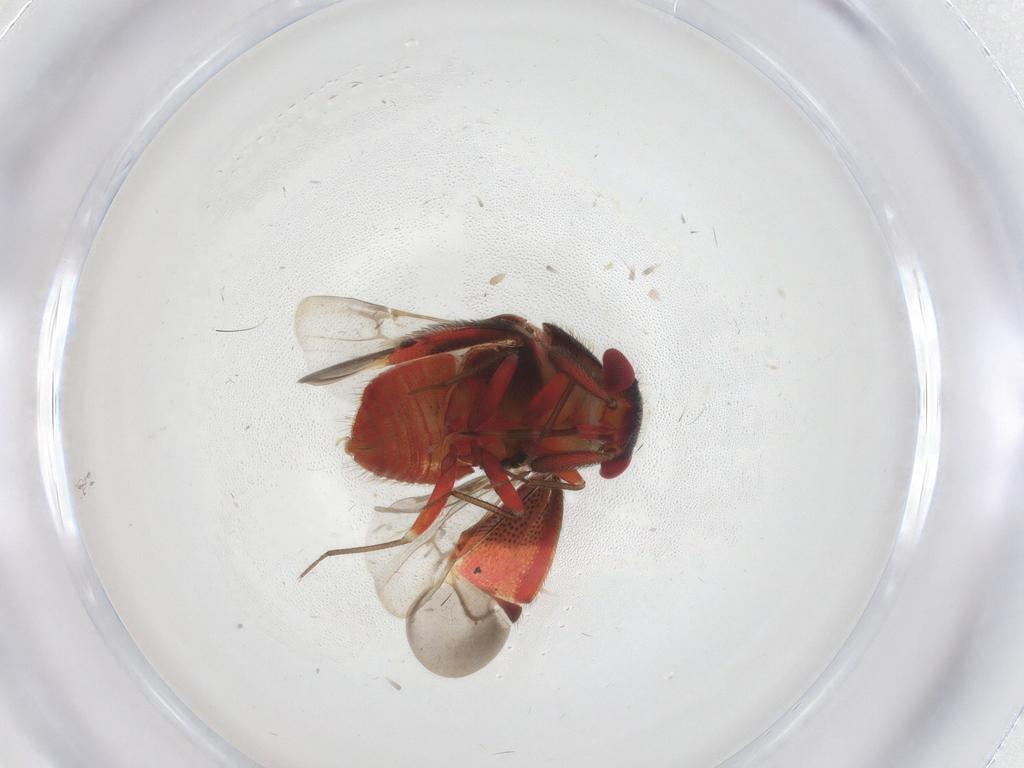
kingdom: Animalia
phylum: Arthropoda
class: Insecta
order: Hemiptera
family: Miridae
